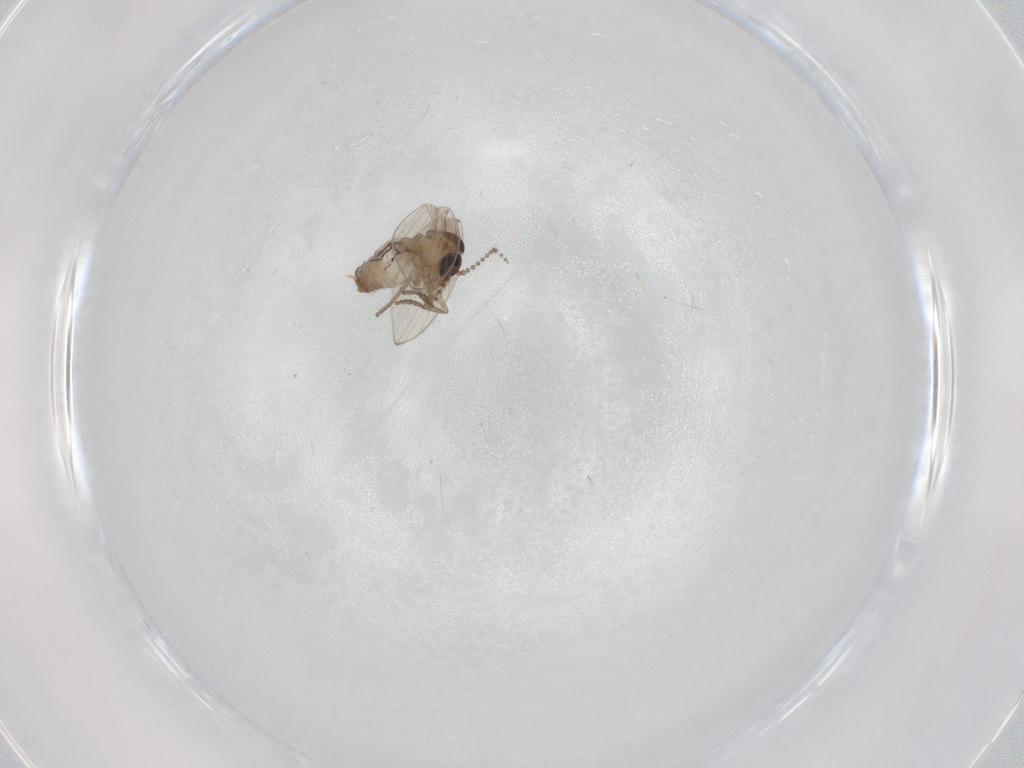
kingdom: Animalia
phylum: Arthropoda
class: Insecta
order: Diptera
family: Psychodidae
